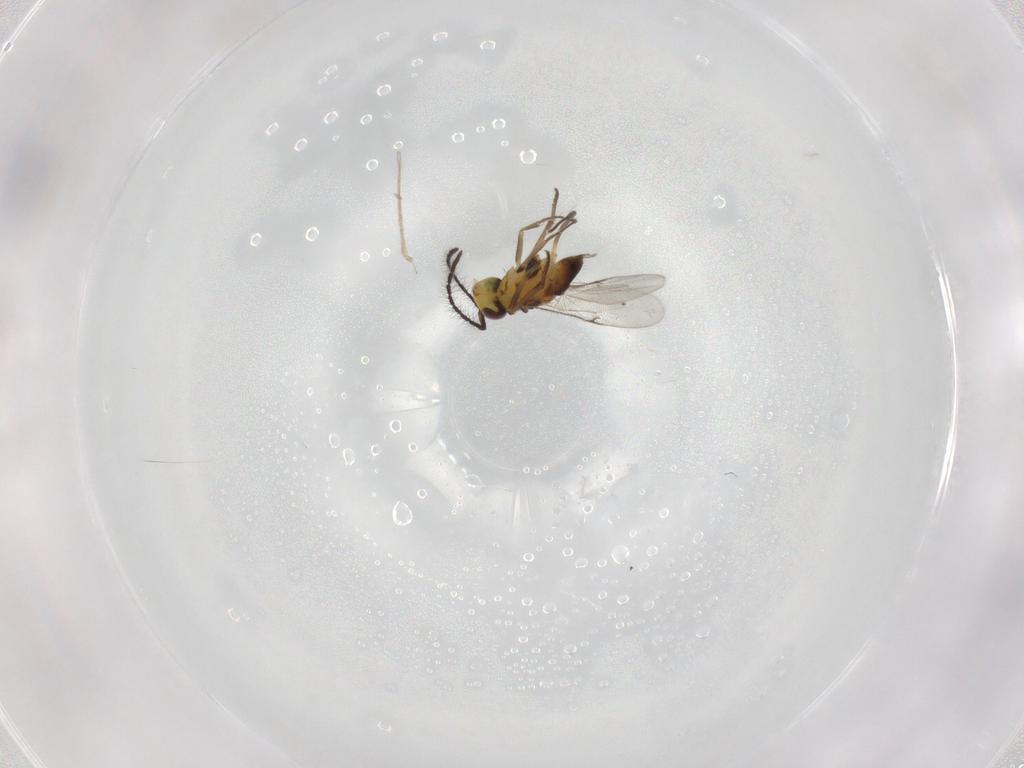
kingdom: Animalia
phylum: Arthropoda
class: Insecta
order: Hymenoptera
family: Encyrtidae
